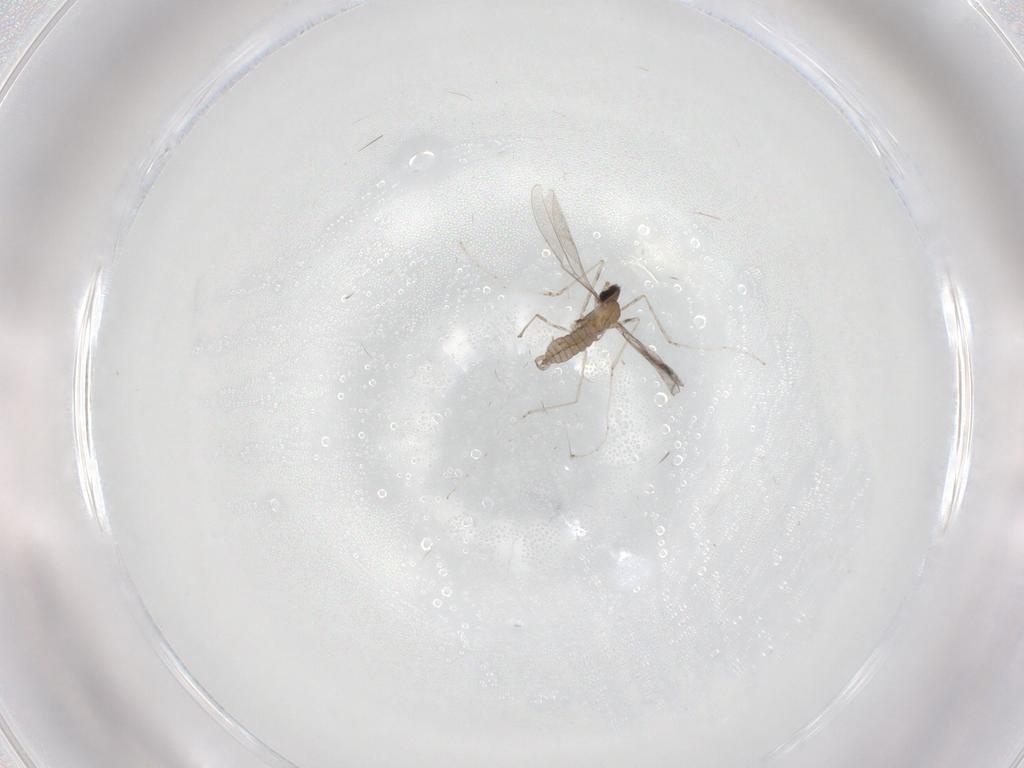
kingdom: Animalia
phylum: Arthropoda
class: Insecta
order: Diptera
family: Cecidomyiidae
